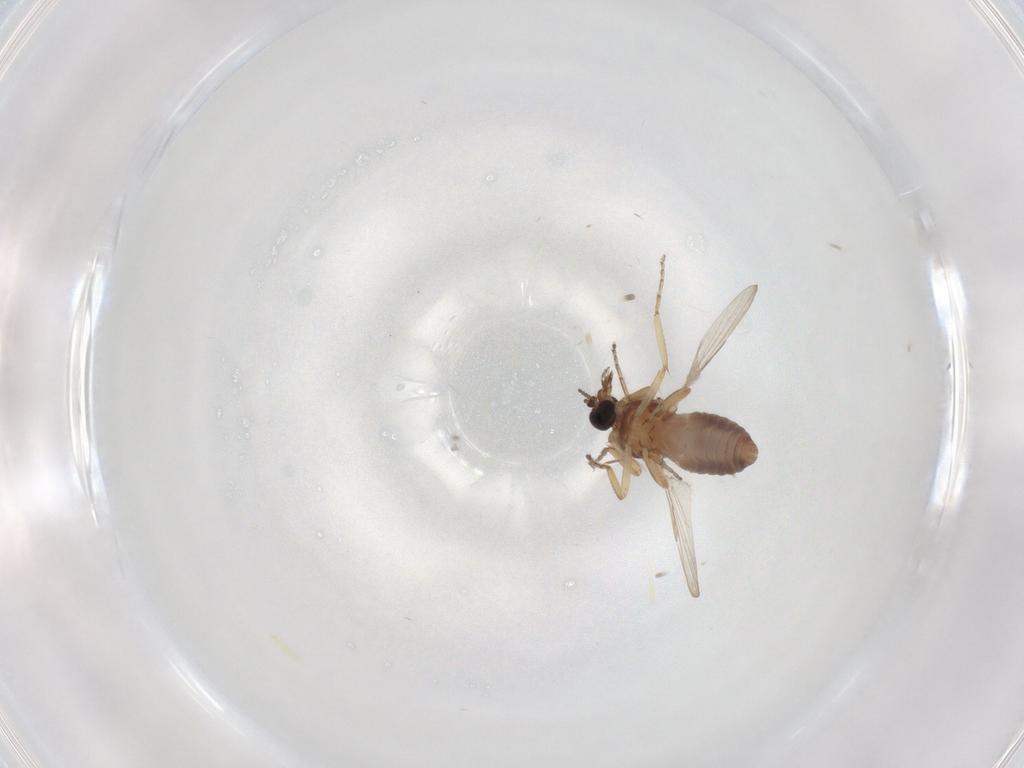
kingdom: Animalia
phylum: Arthropoda
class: Insecta
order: Diptera
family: Ceratopogonidae
